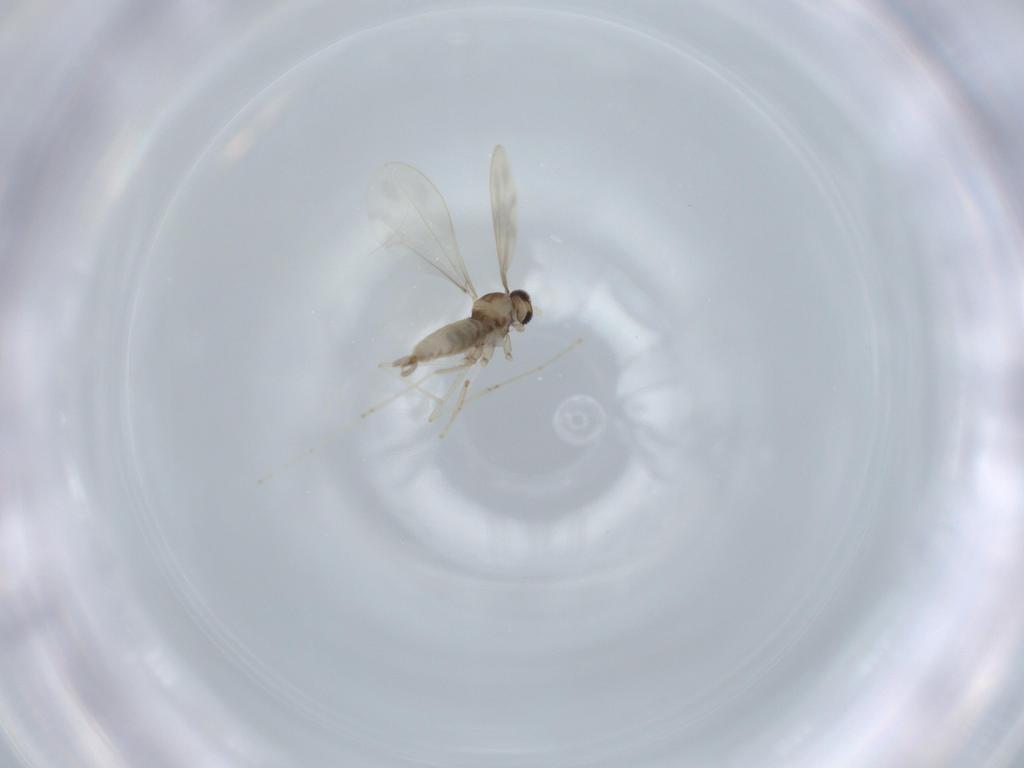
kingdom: Animalia
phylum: Arthropoda
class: Insecta
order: Diptera
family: Cecidomyiidae
